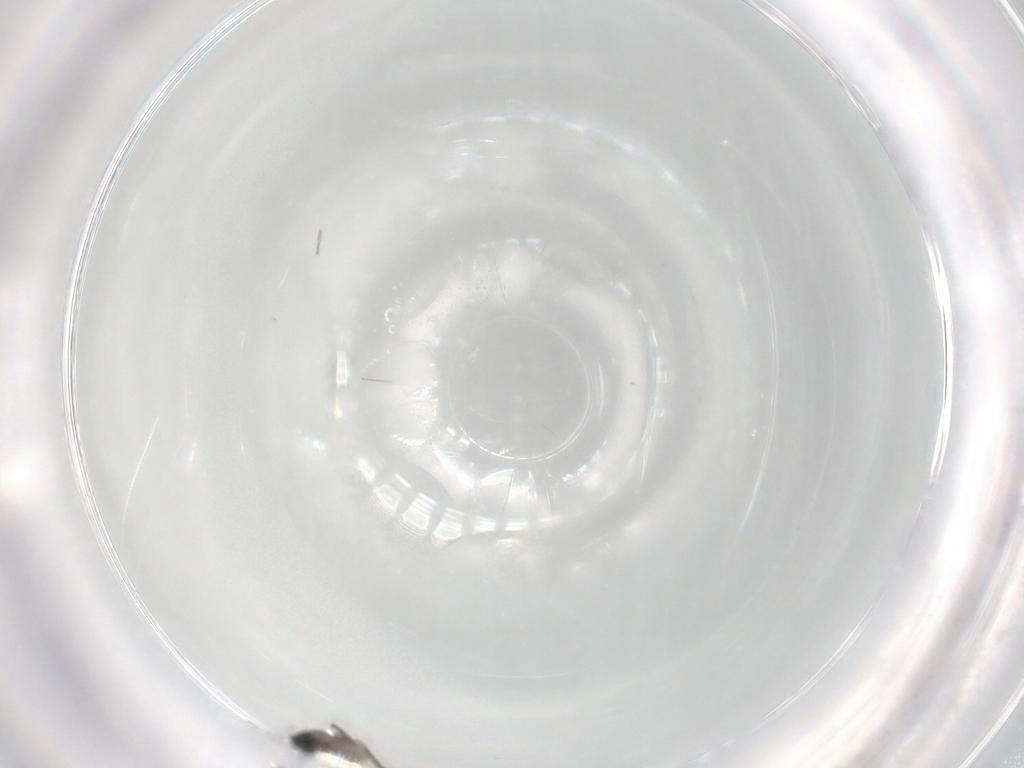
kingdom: Animalia
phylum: Arthropoda
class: Insecta
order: Diptera
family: Sciaridae
